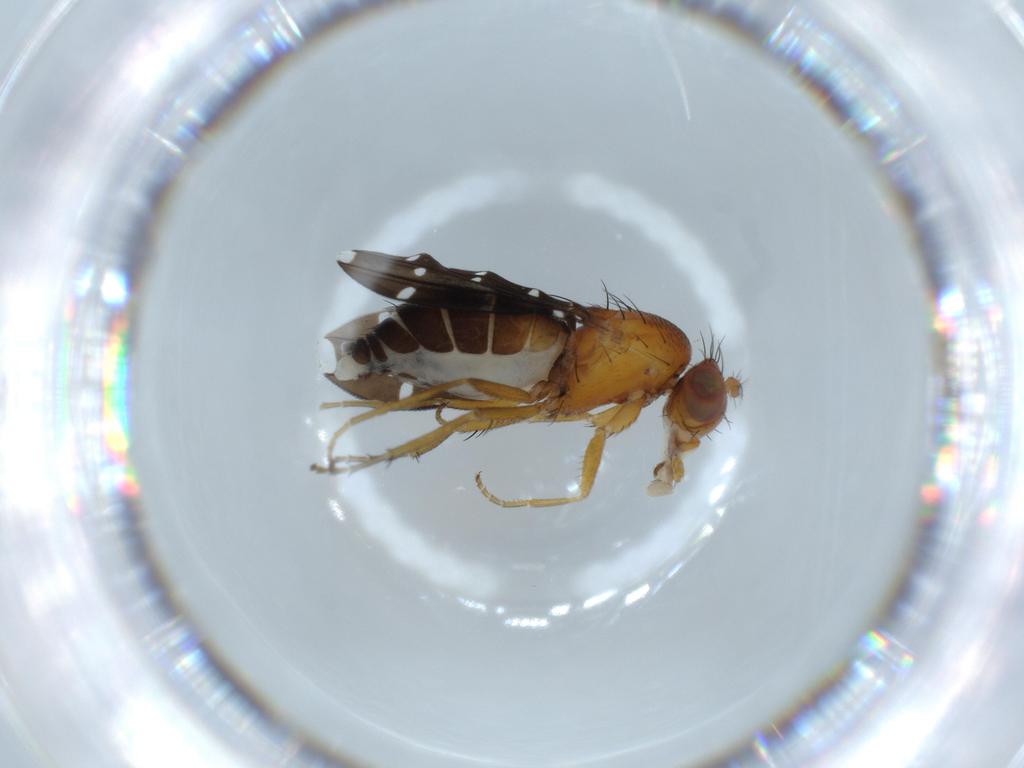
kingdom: Animalia
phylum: Arthropoda
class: Insecta
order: Diptera
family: Ephydridae
